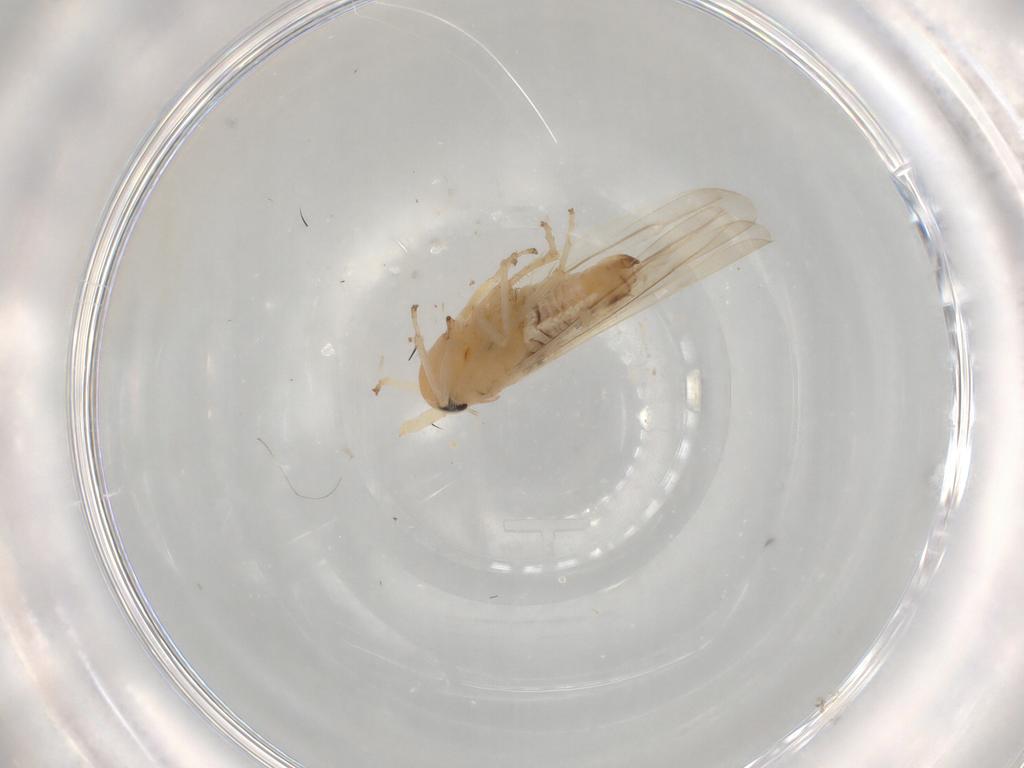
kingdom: Animalia
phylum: Arthropoda
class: Insecta
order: Hemiptera
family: Cicadellidae
